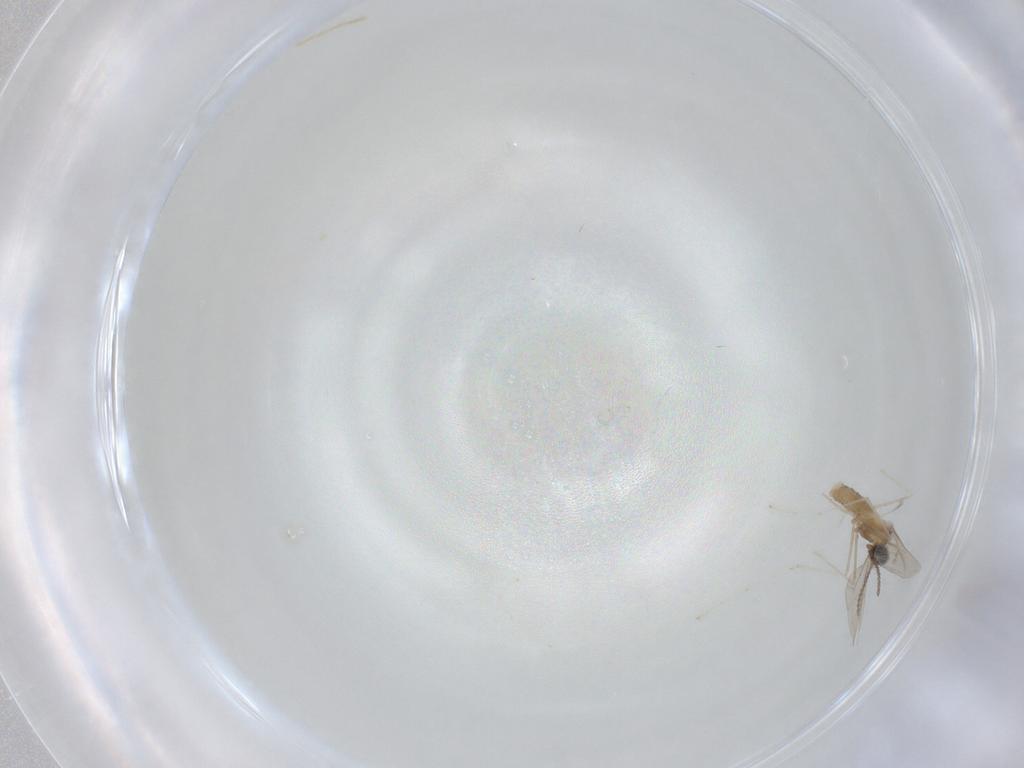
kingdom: Animalia
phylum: Arthropoda
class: Insecta
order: Diptera
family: Cecidomyiidae
